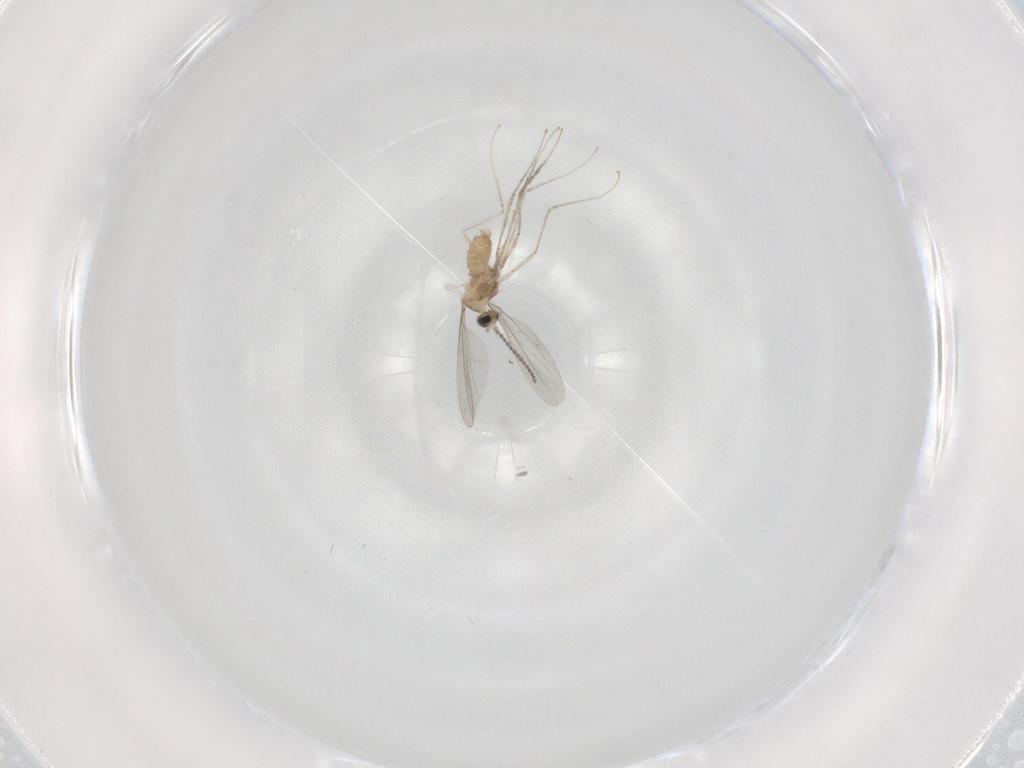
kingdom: Animalia
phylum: Arthropoda
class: Insecta
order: Diptera
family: Cecidomyiidae
